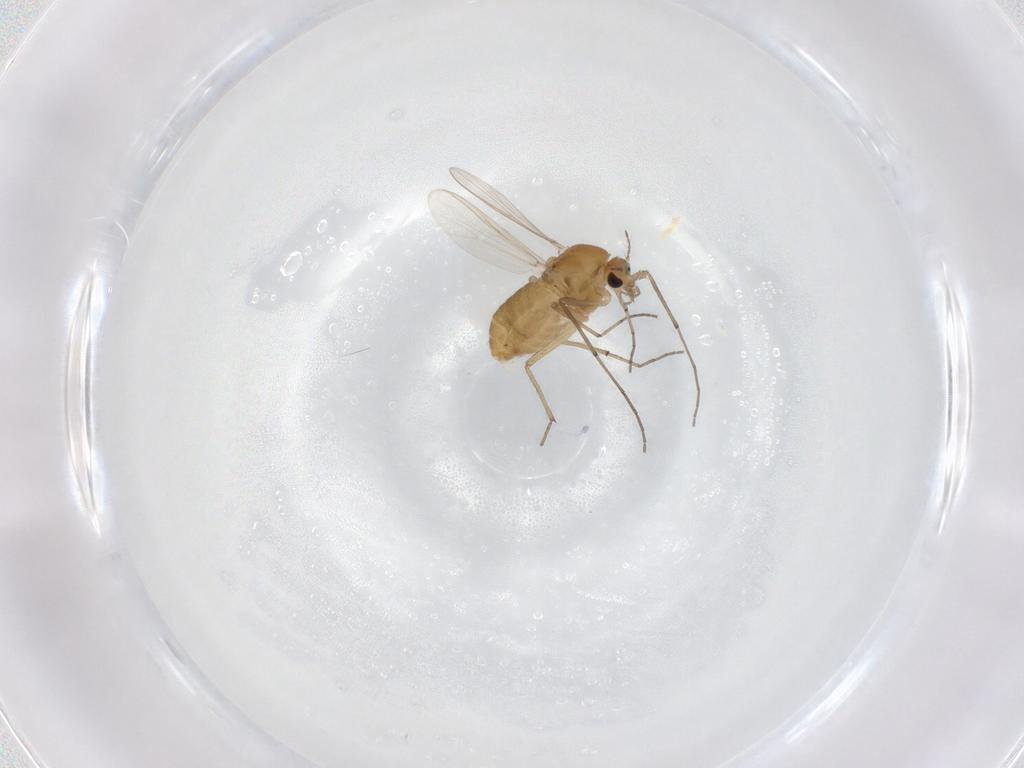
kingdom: Animalia
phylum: Arthropoda
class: Insecta
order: Diptera
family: Chironomidae
